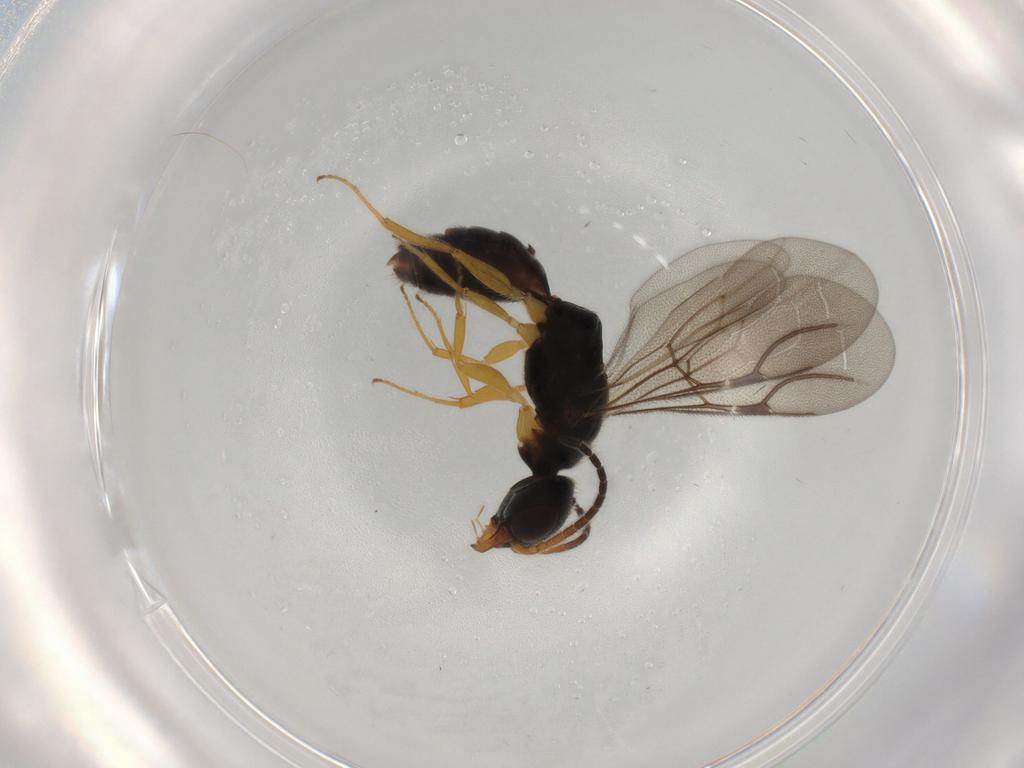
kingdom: Animalia
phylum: Arthropoda
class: Insecta
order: Hymenoptera
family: Bethylidae
